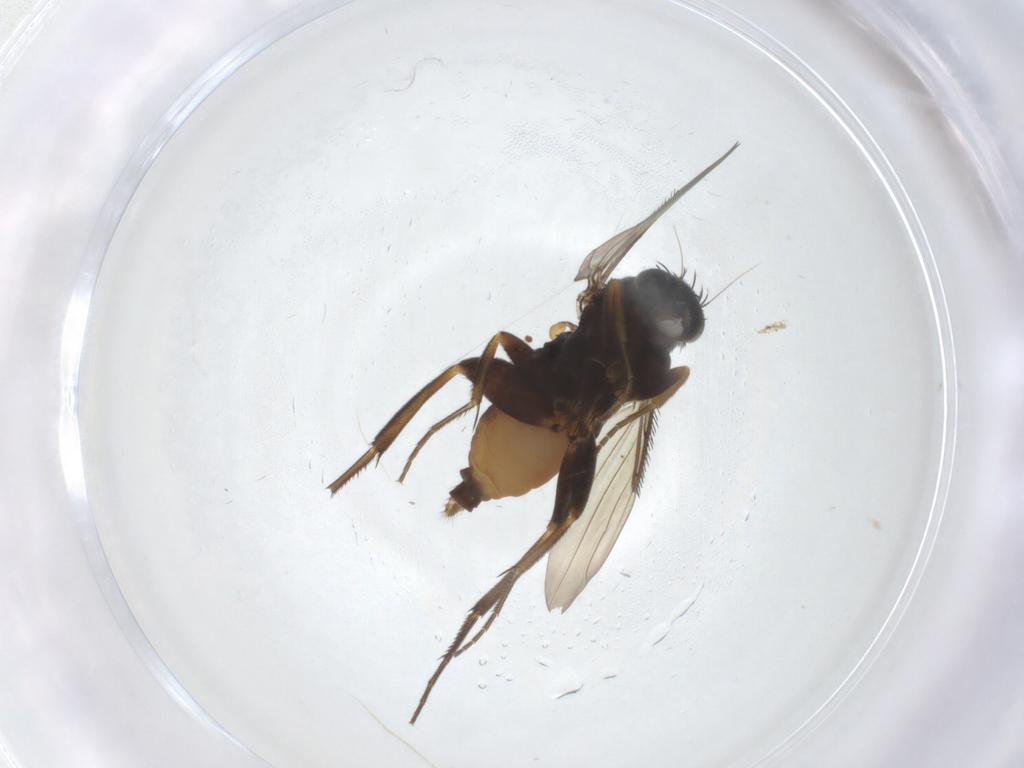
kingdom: Animalia
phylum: Arthropoda
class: Insecta
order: Diptera
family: Phoridae
